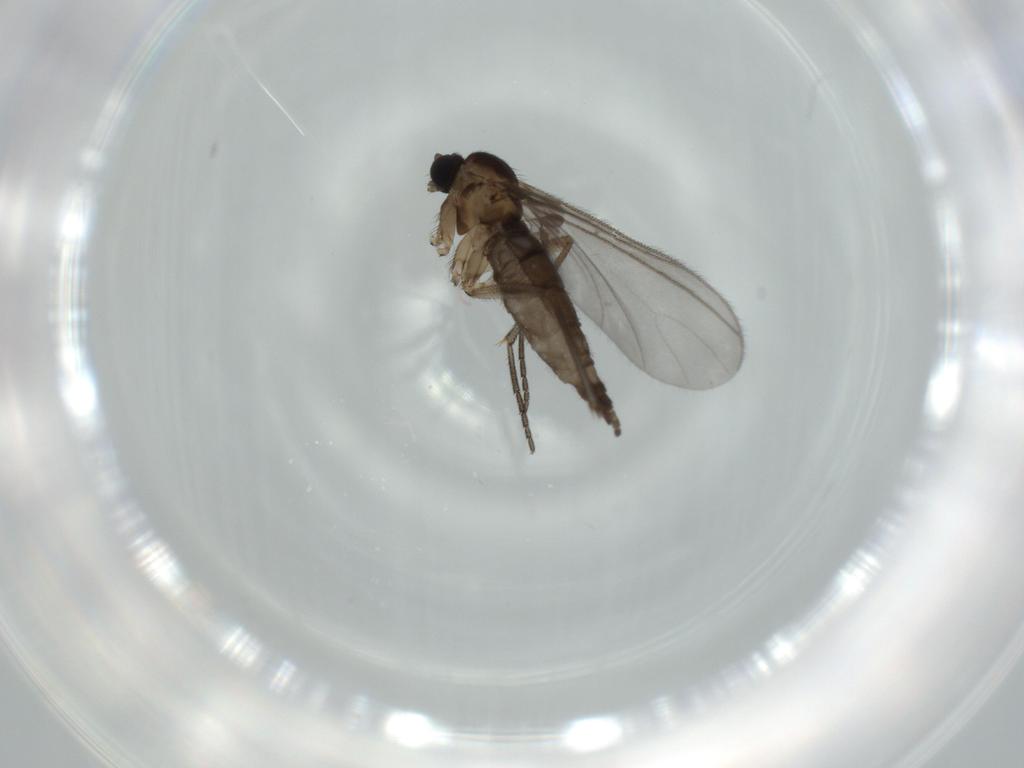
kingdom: Animalia
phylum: Arthropoda
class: Insecta
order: Diptera
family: Sciaridae
